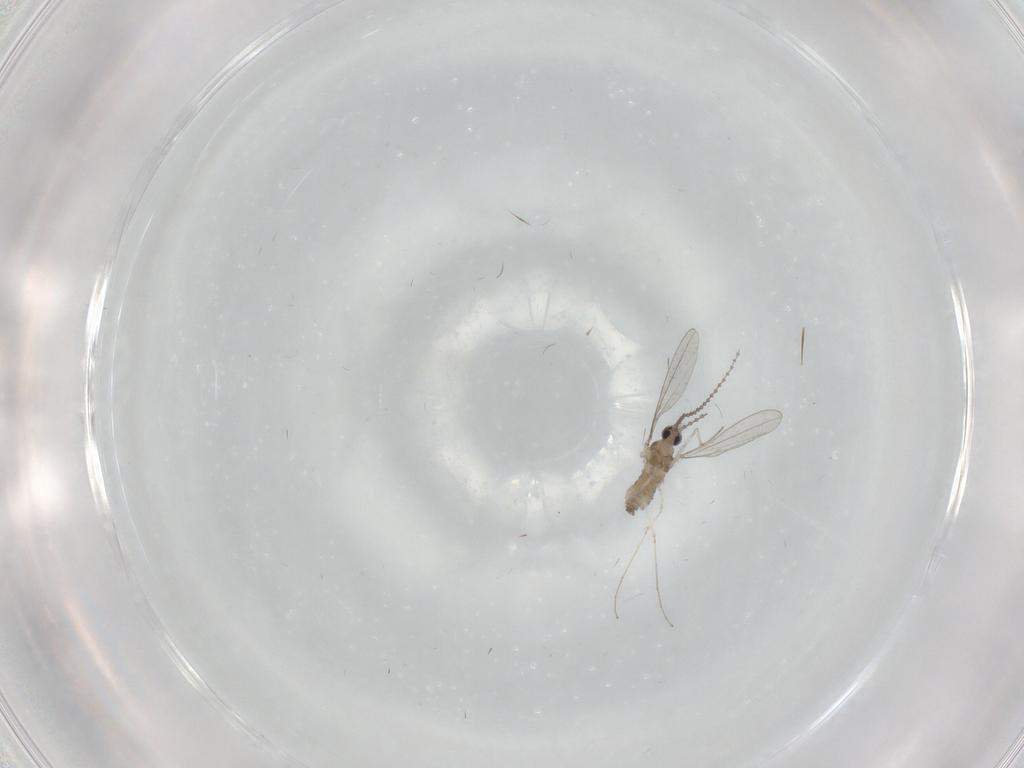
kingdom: Animalia
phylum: Arthropoda
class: Insecta
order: Diptera
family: Cecidomyiidae
